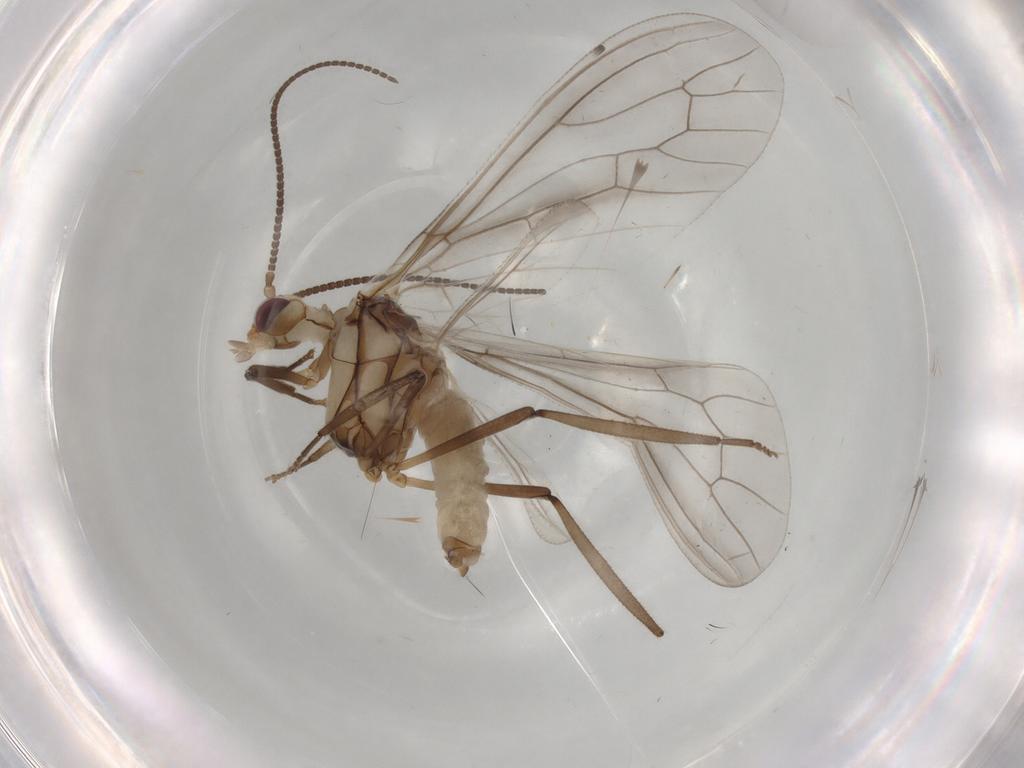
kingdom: Animalia
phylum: Arthropoda
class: Insecta
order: Neuroptera
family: Coniopterygidae
